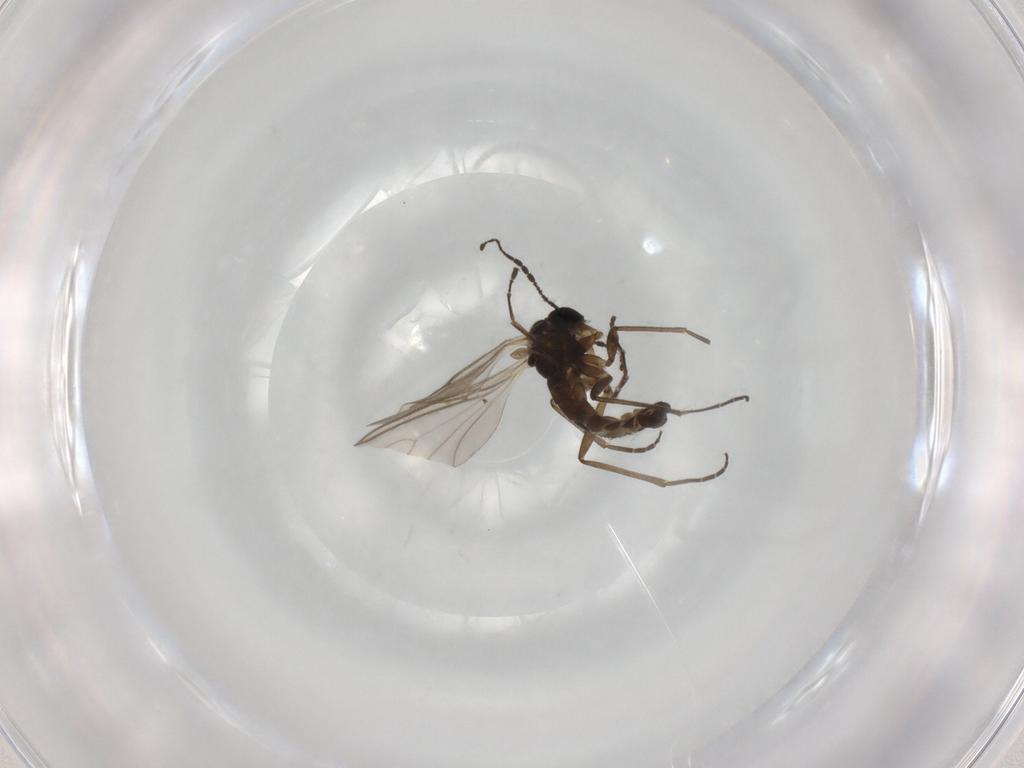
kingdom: Animalia
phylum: Arthropoda
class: Insecta
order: Diptera
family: Sciaridae
